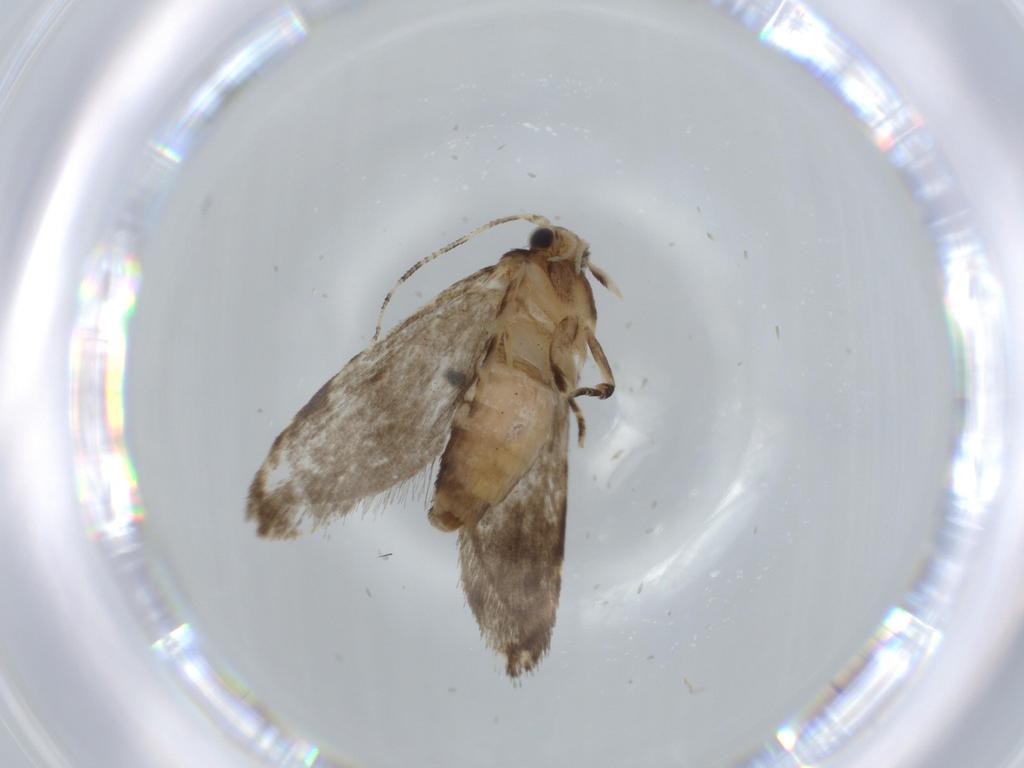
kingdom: Animalia
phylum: Arthropoda
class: Insecta
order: Lepidoptera
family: Tineidae
